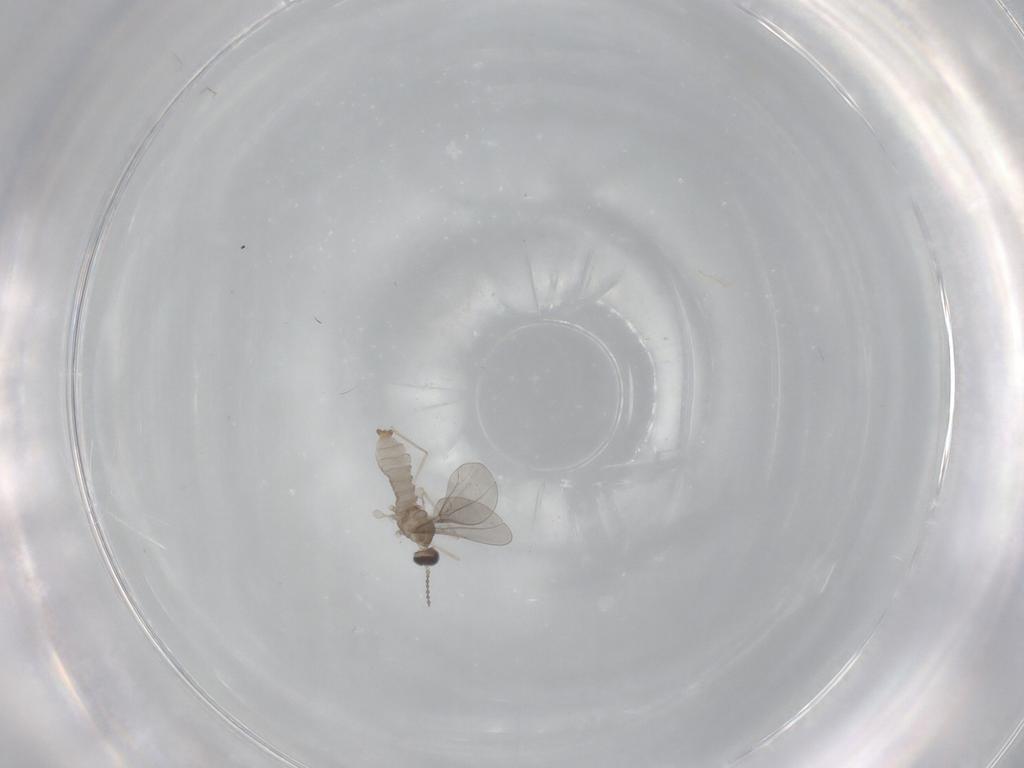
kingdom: Animalia
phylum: Arthropoda
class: Insecta
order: Diptera
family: Cecidomyiidae
